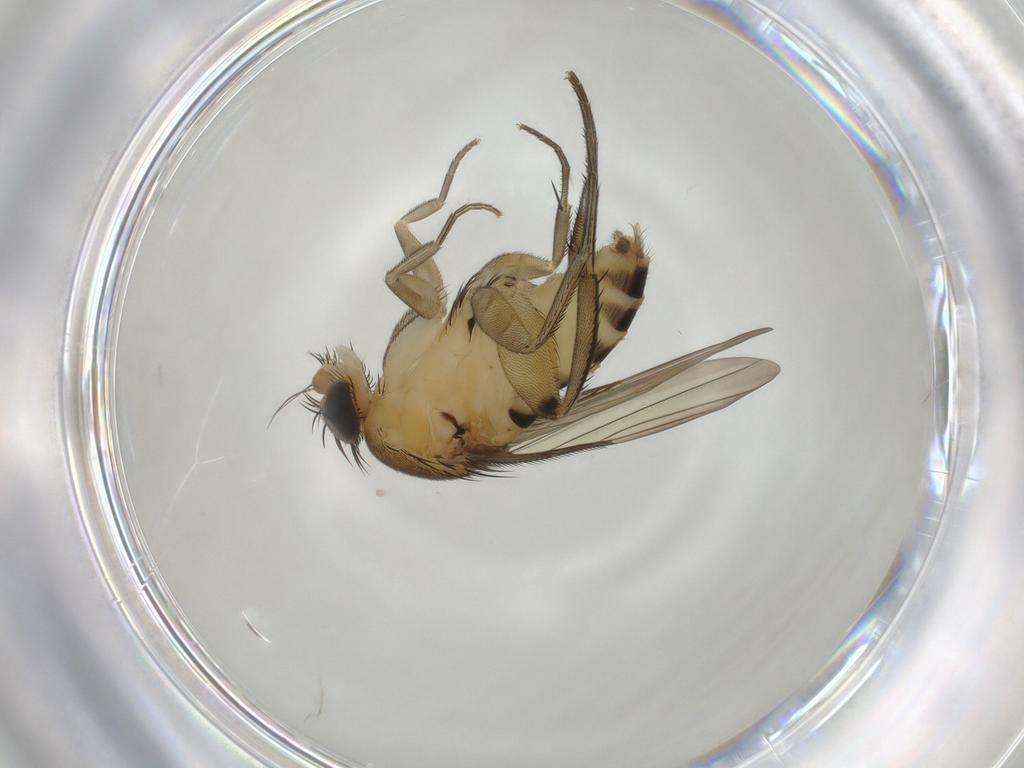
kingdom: Animalia
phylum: Arthropoda
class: Insecta
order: Diptera
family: Phoridae
